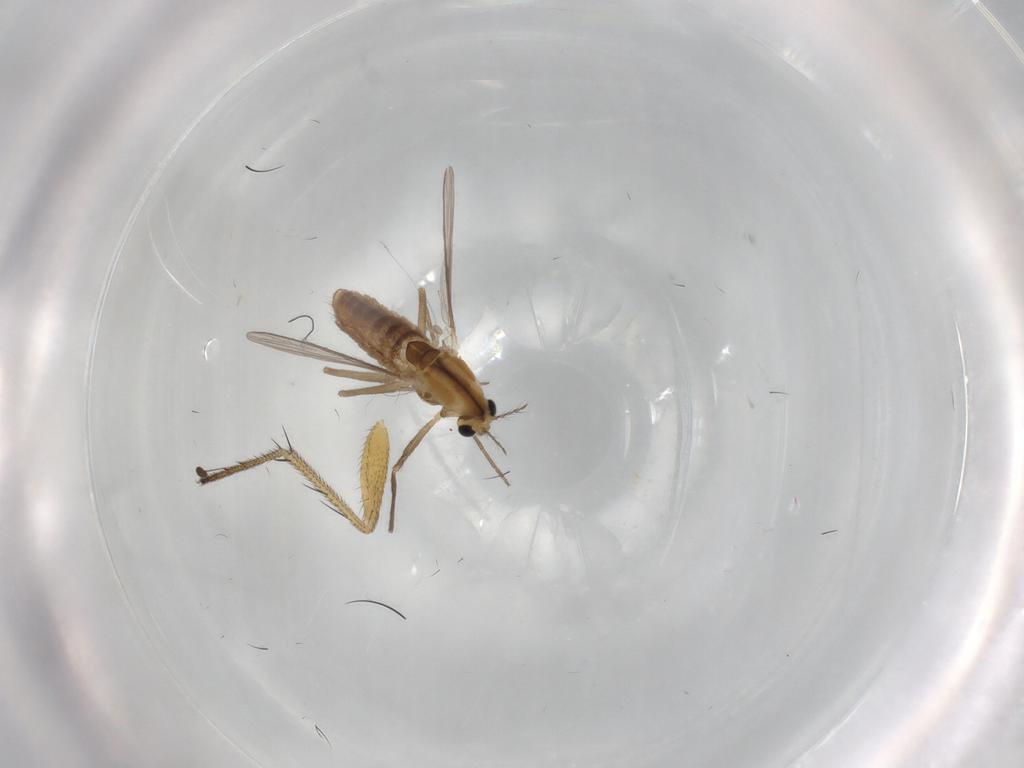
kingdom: Animalia
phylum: Arthropoda
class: Insecta
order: Diptera
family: Chironomidae
